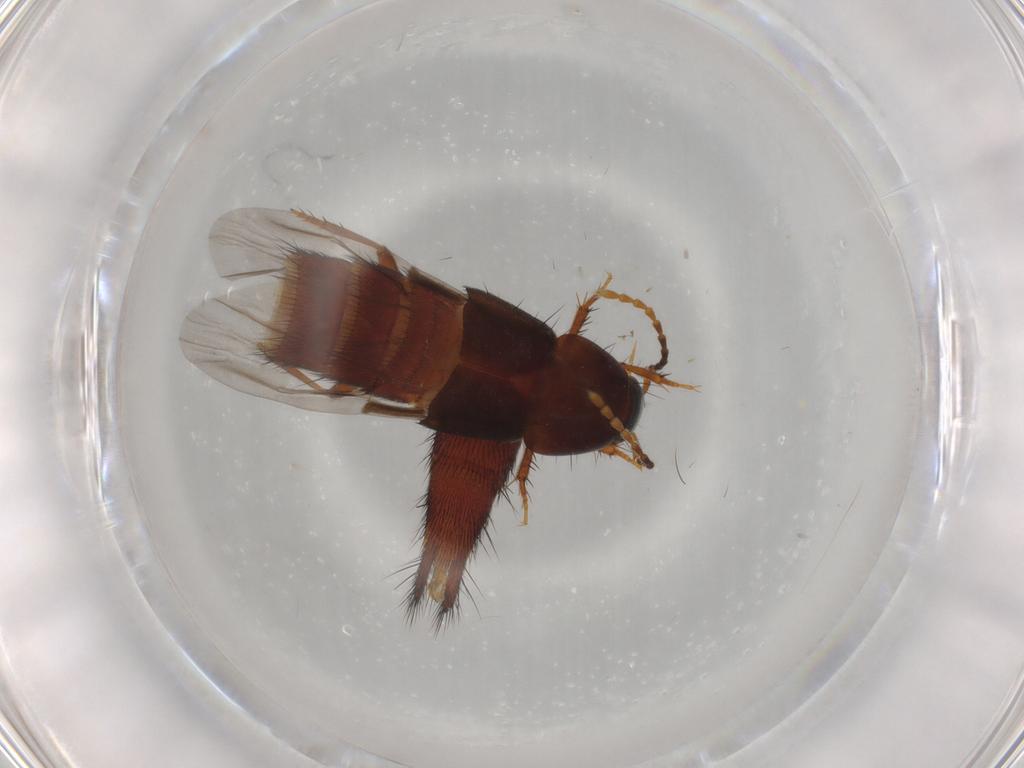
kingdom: Animalia
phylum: Arthropoda
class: Insecta
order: Coleoptera
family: Staphylinidae
